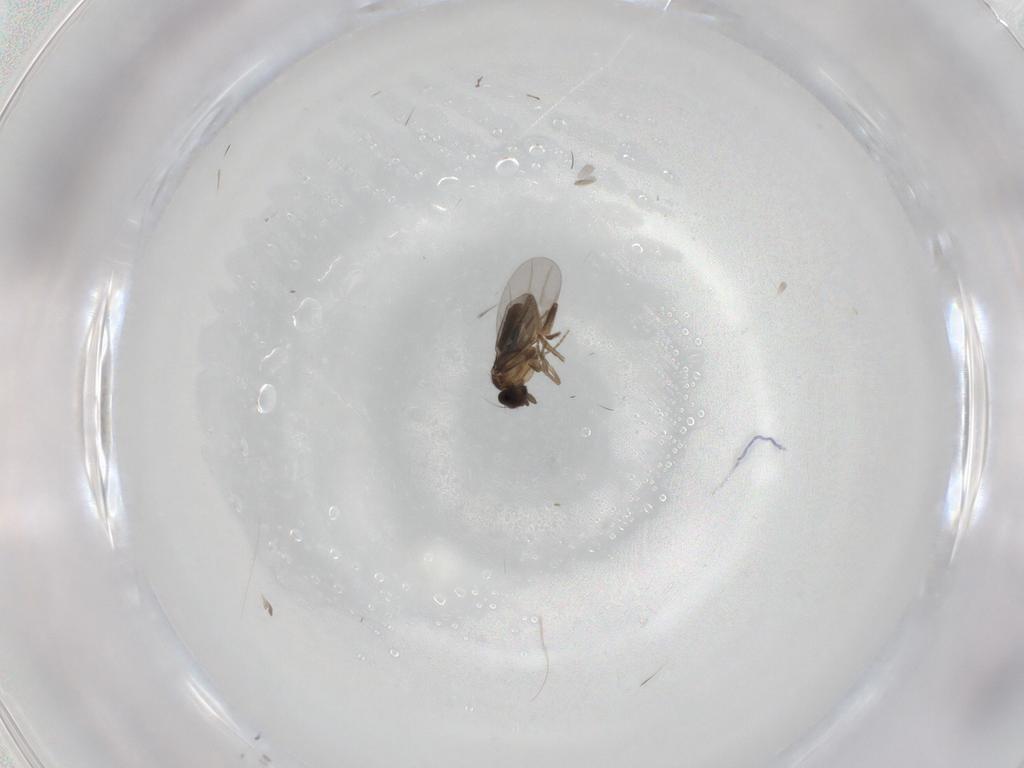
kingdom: Animalia
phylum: Arthropoda
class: Insecta
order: Diptera
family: Cecidomyiidae
